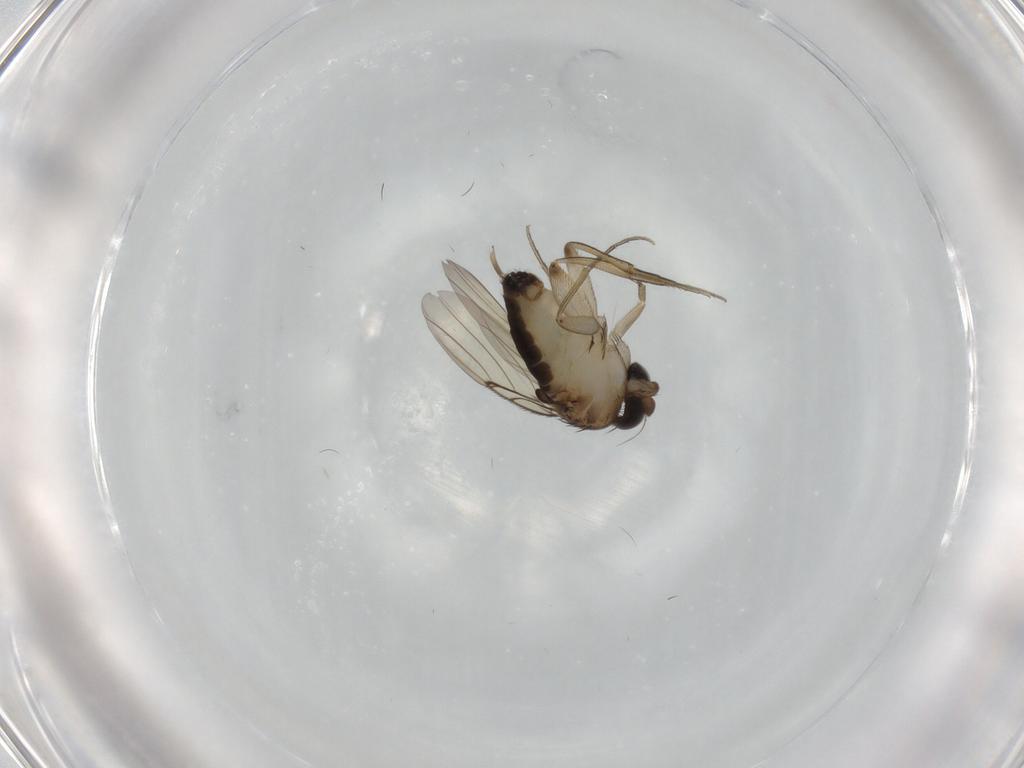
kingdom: Animalia
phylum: Arthropoda
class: Insecta
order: Diptera
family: Phoridae
